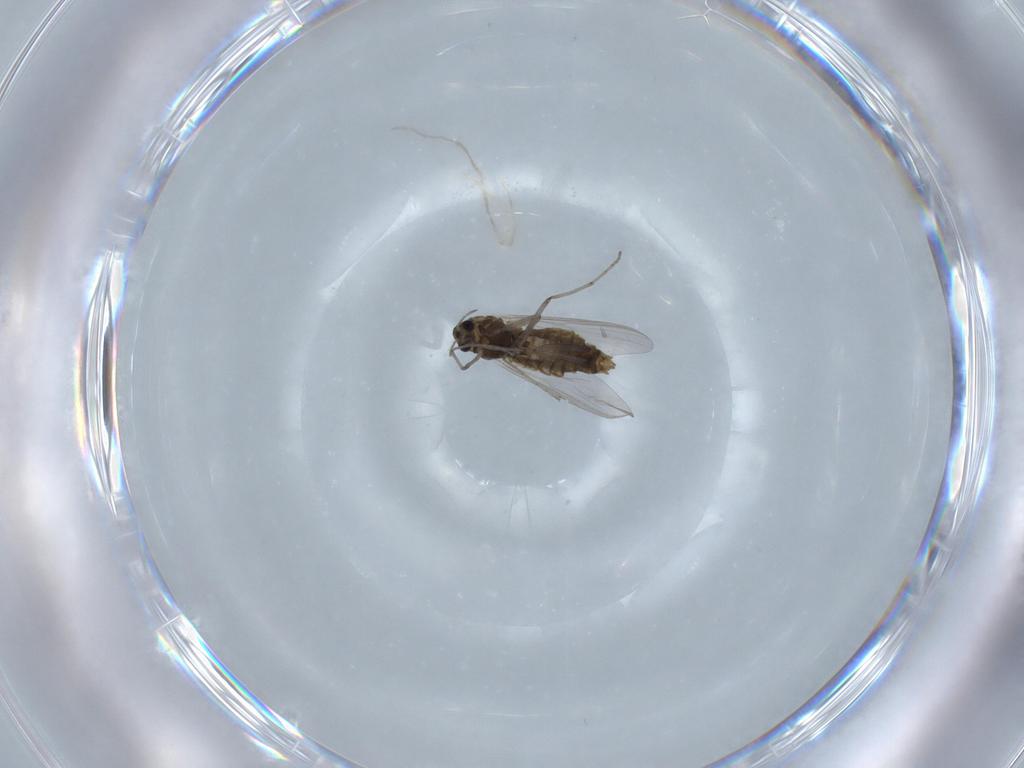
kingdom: Animalia
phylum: Arthropoda
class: Insecta
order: Diptera
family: Chironomidae
